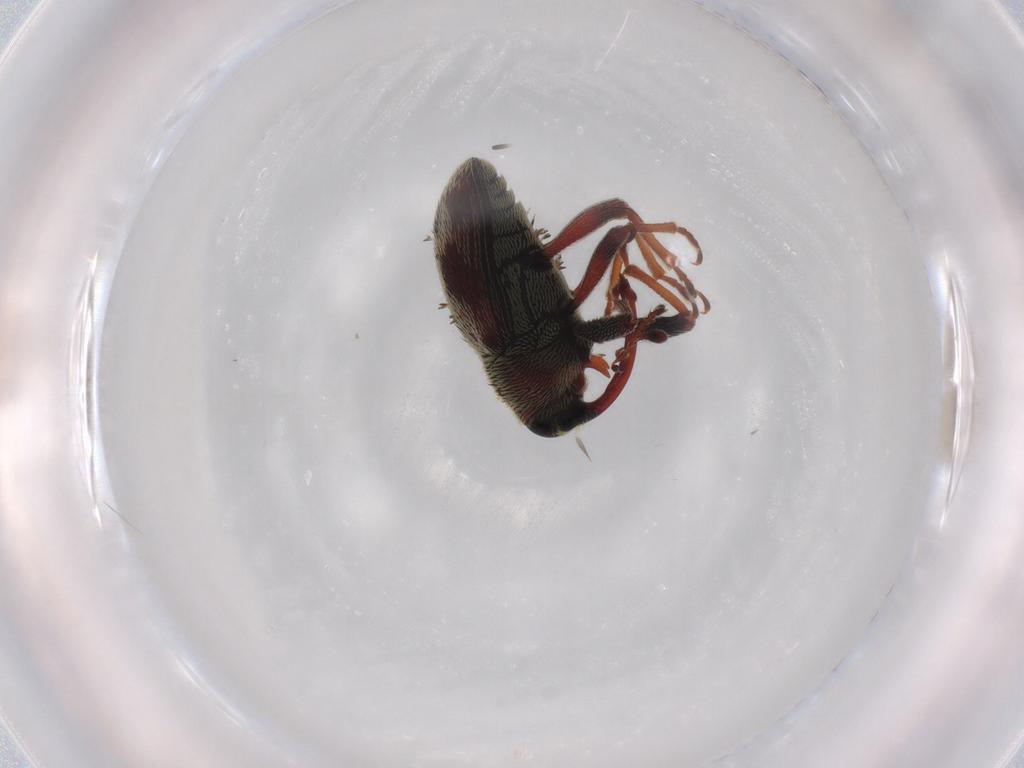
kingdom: Animalia
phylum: Arthropoda
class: Insecta
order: Coleoptera
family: Curculionidae
